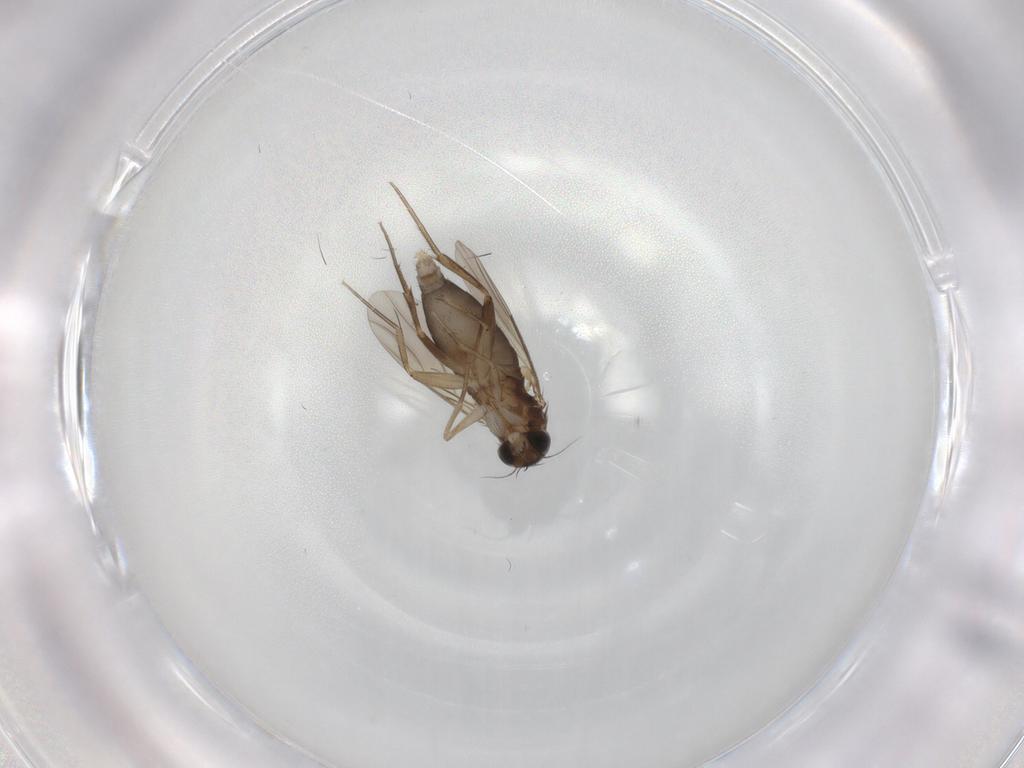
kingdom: Animalia
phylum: Arthropoda
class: Insecta
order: Diptera
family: Phoridae
